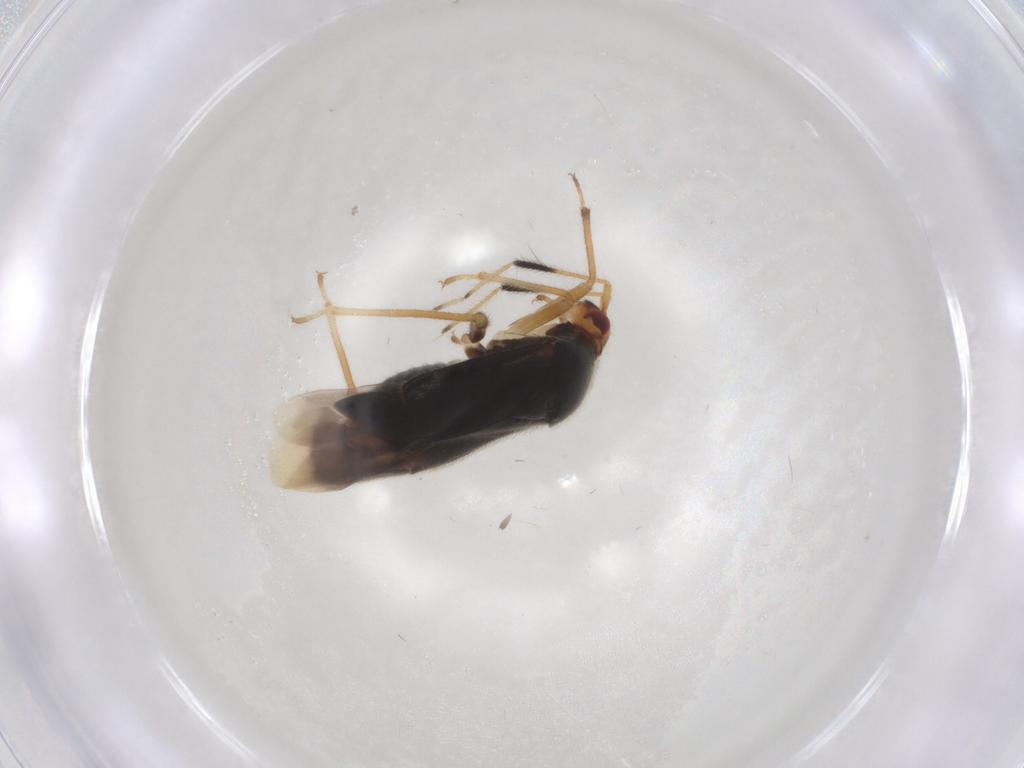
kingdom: Animalia
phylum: Arthropoda
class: Insecta
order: Hemiptera
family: Miridae
